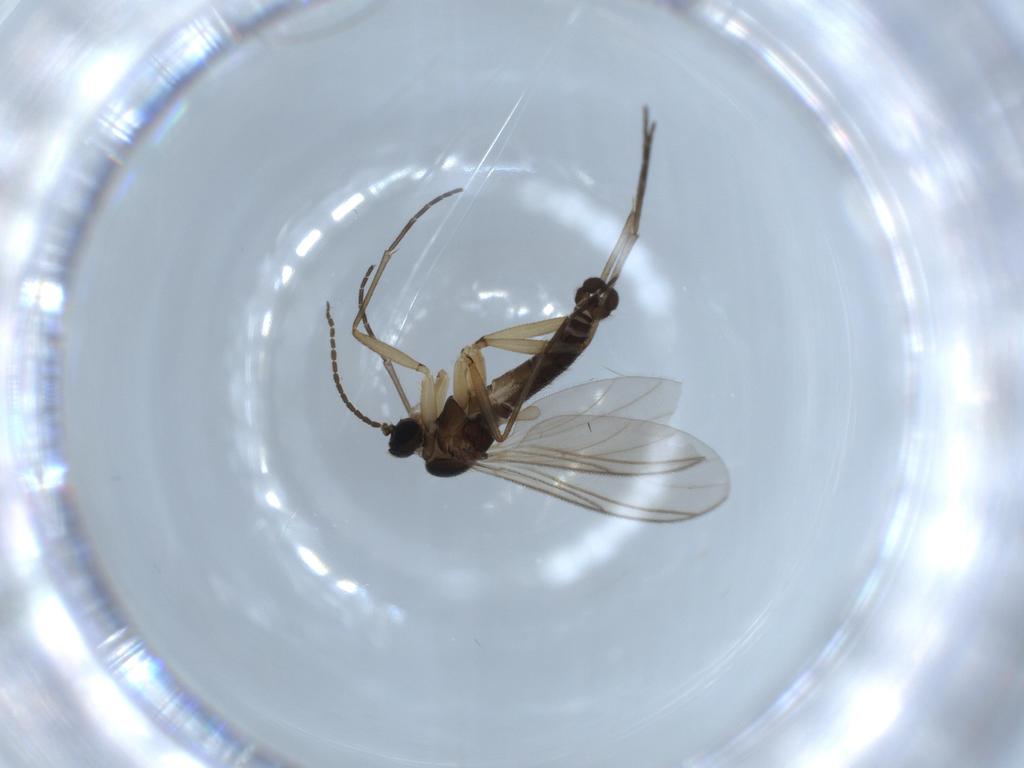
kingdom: Animalia
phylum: Arthropoda
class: Insecta
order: Diptera
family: Sciaridae
